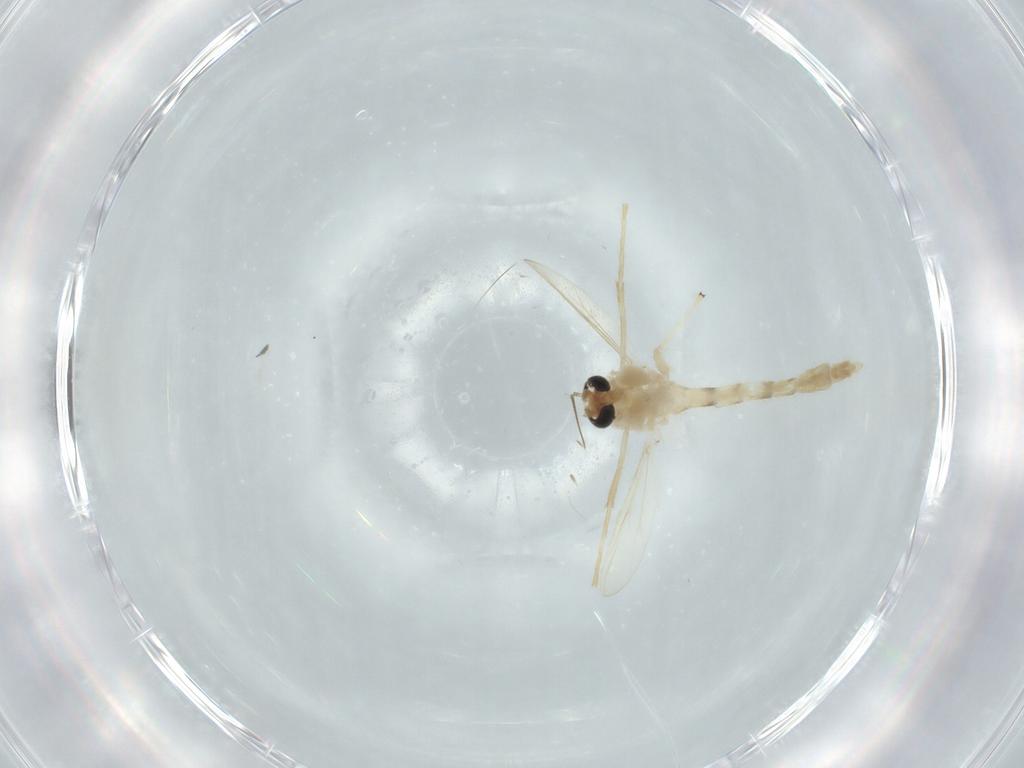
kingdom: Animalia
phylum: Arthropoda
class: Insecta
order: Diptera
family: Chironomidae
